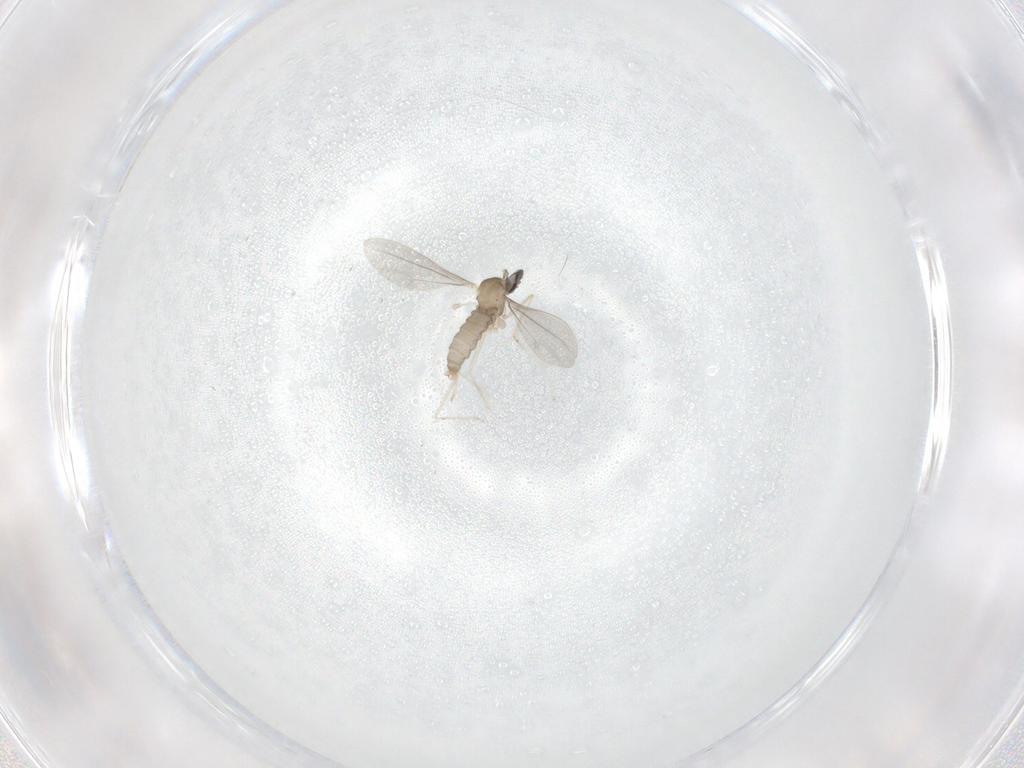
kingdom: Animalia
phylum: Arthropoda
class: Insecta
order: Diptera
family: Cecidomyiidae
